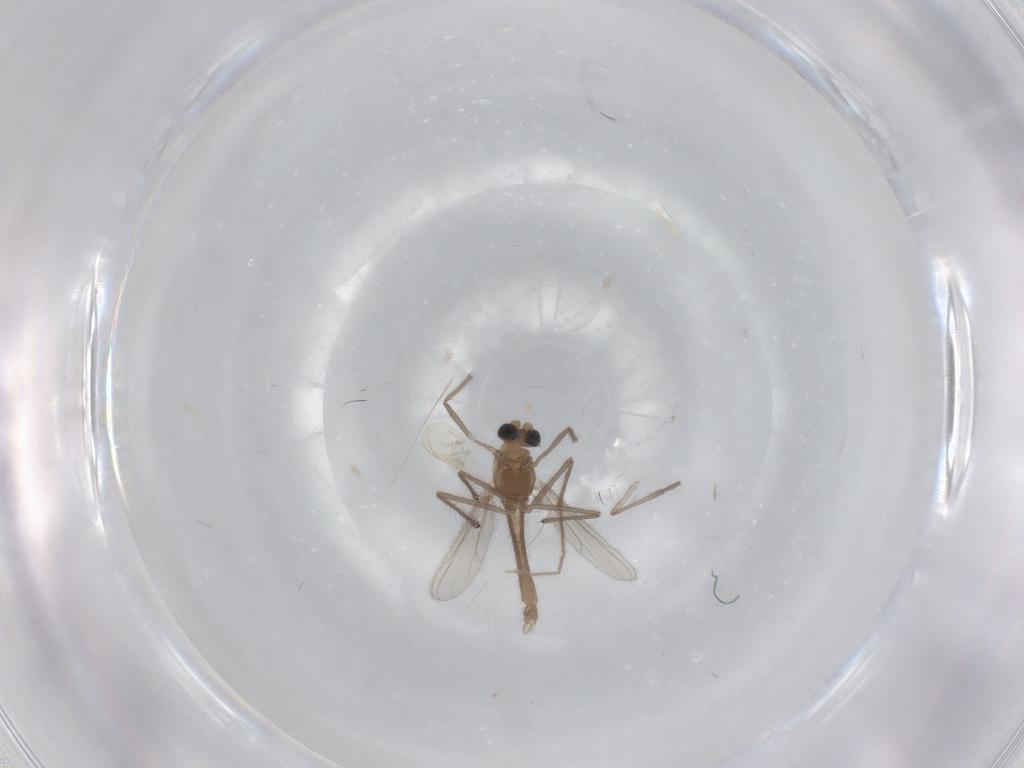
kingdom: Animalia
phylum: Arthropoda
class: Insecta
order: Diptera
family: Chironomidae
